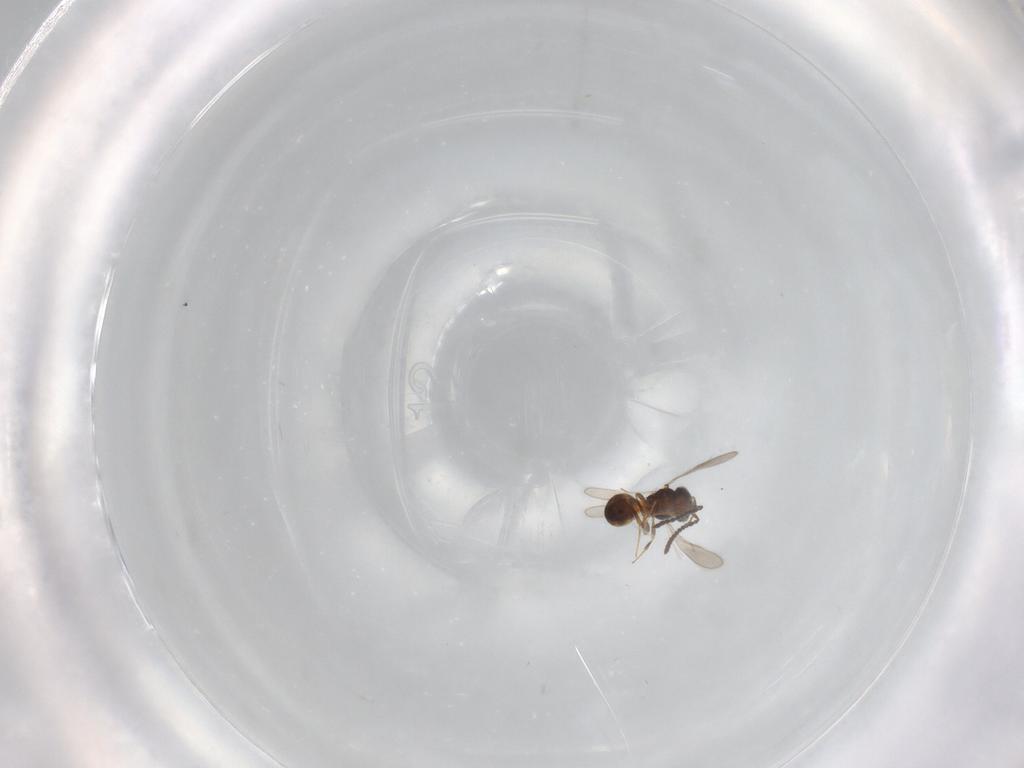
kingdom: Animalia
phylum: Arthropoda
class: Insecta
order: Hymenoptera
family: Scelionidae
